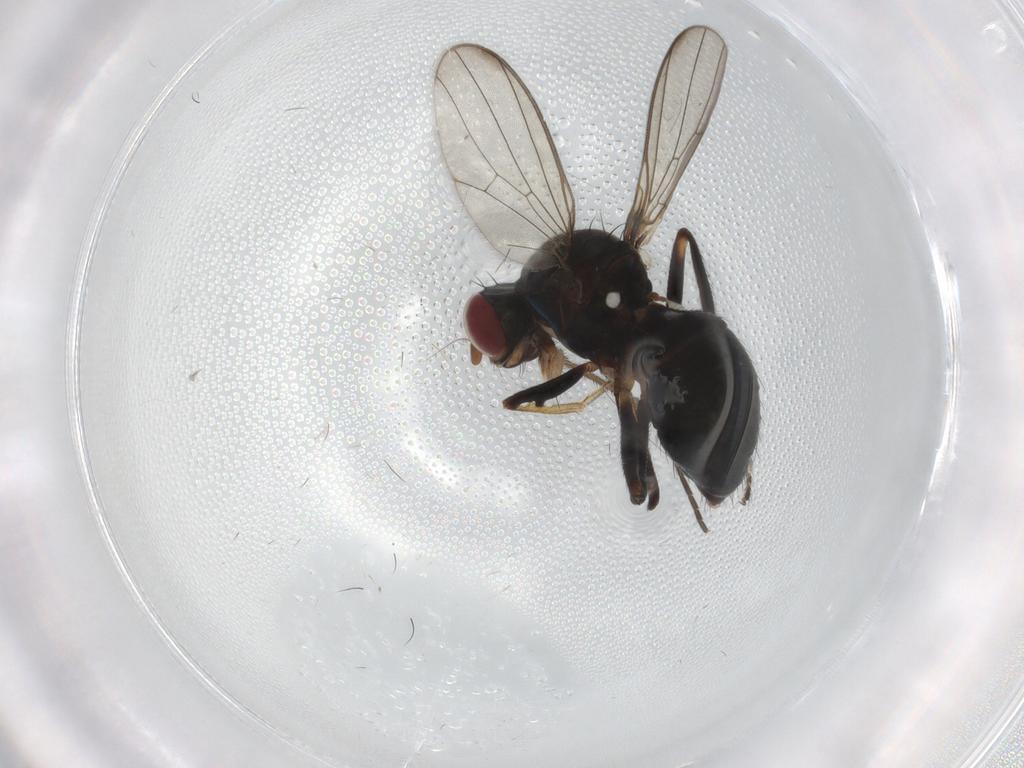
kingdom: Animalia
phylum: Arthropoda
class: Insecta
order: Diptera
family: Sepsidae
